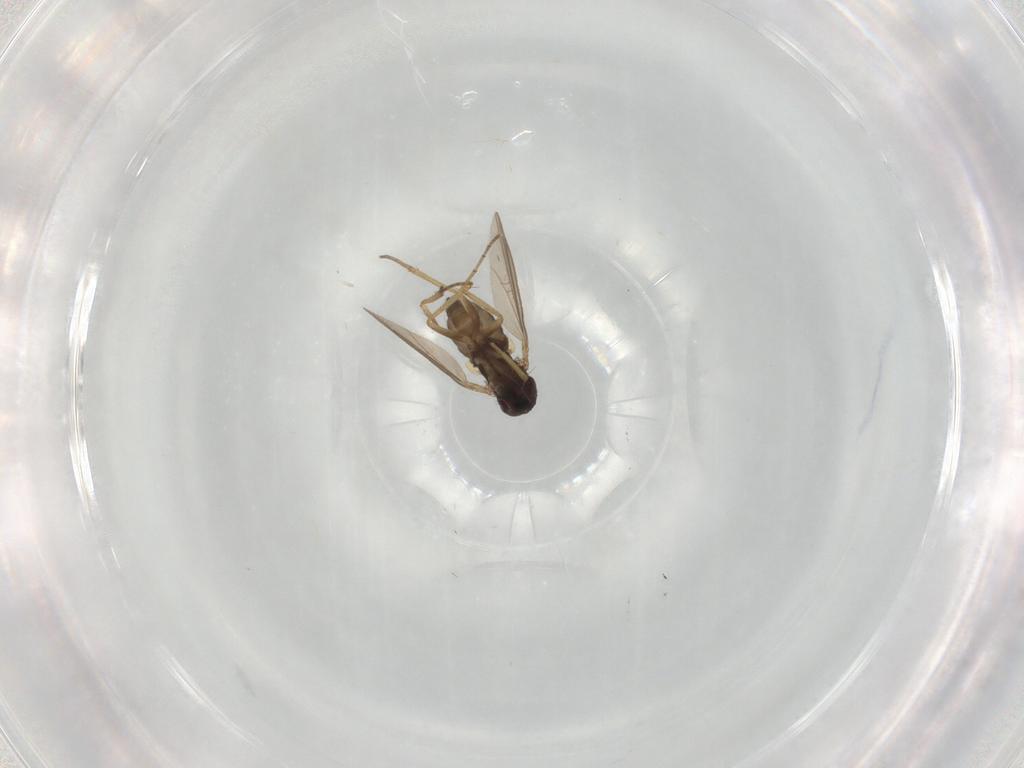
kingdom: Animalia
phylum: Arthropoda
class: Insecta
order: Diptera
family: Dolichopodidae
